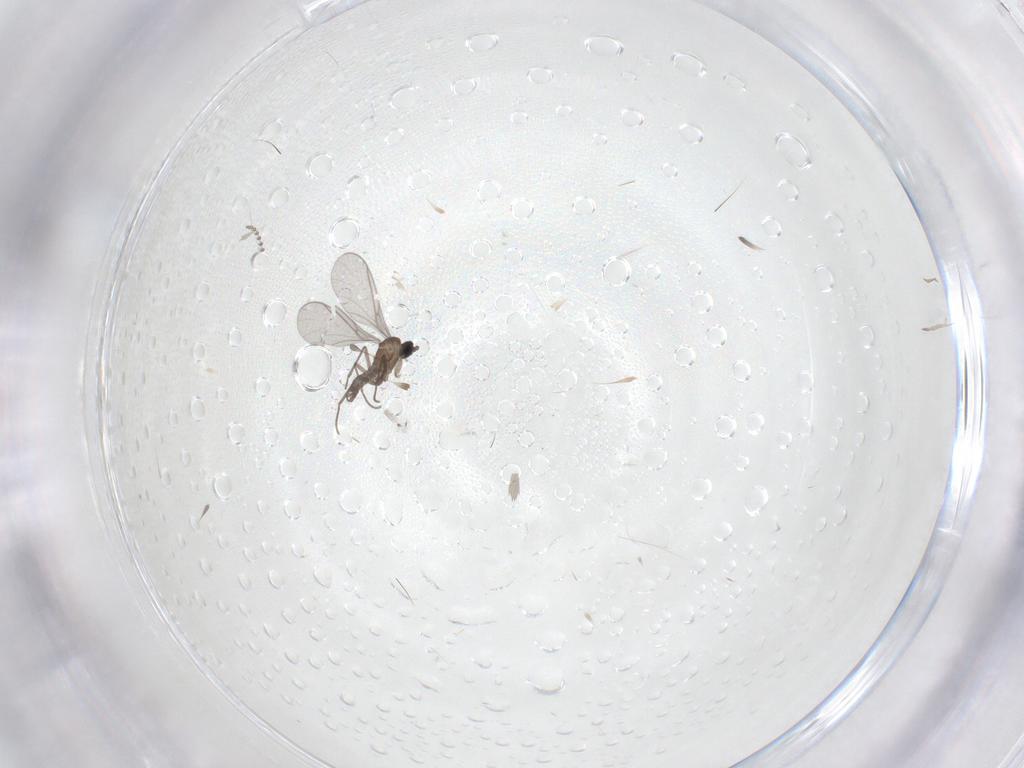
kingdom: Animalia
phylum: Arthropoda
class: Insecta
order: Diptera
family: Psychodidae
